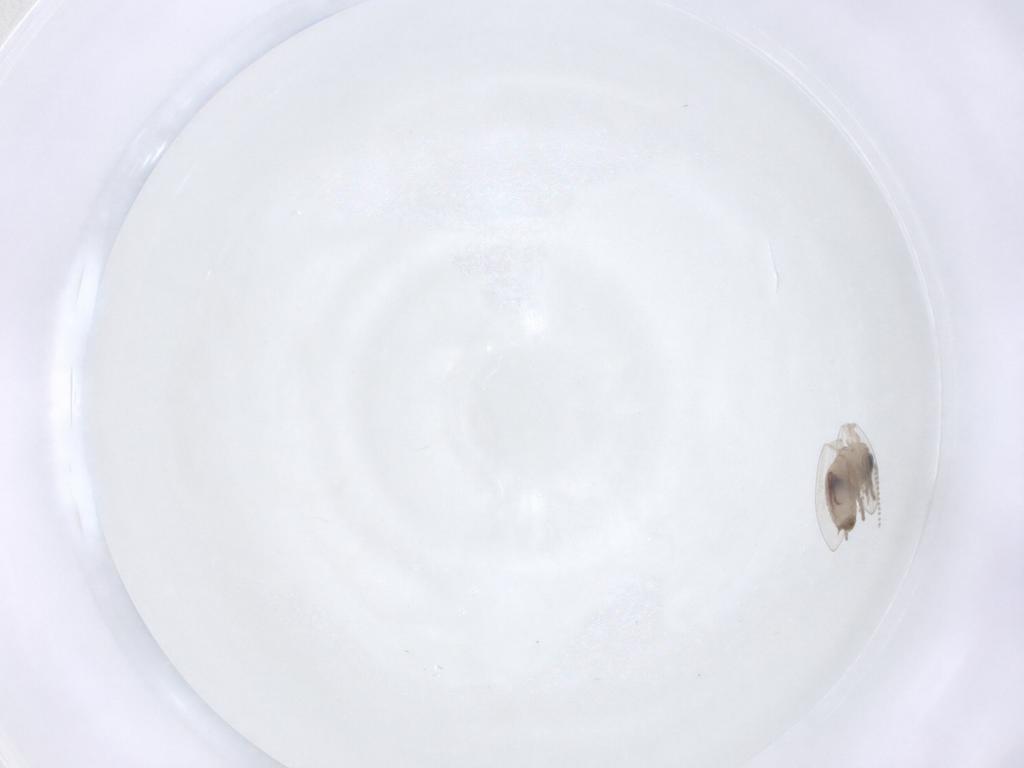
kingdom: Animalia
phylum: Arthropoda
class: Insecta
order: Diptera
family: Psychodidae
